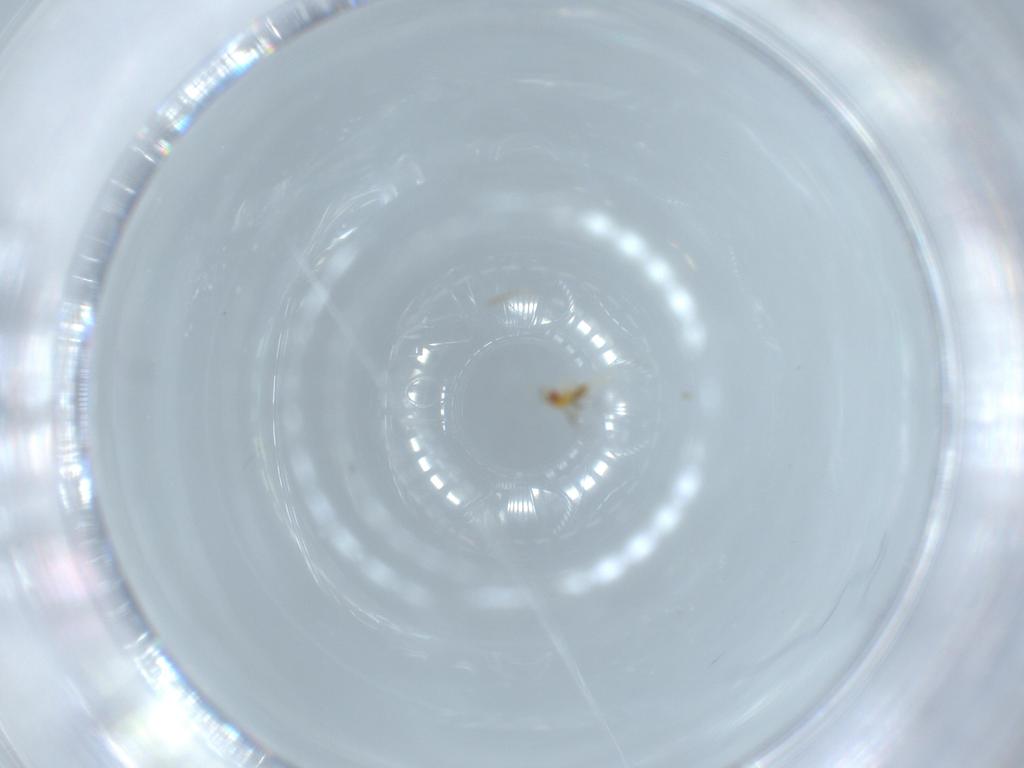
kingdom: Animalia
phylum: Arthropoda
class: Insecta
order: Hymenoptera
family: Trichogrammatidae
